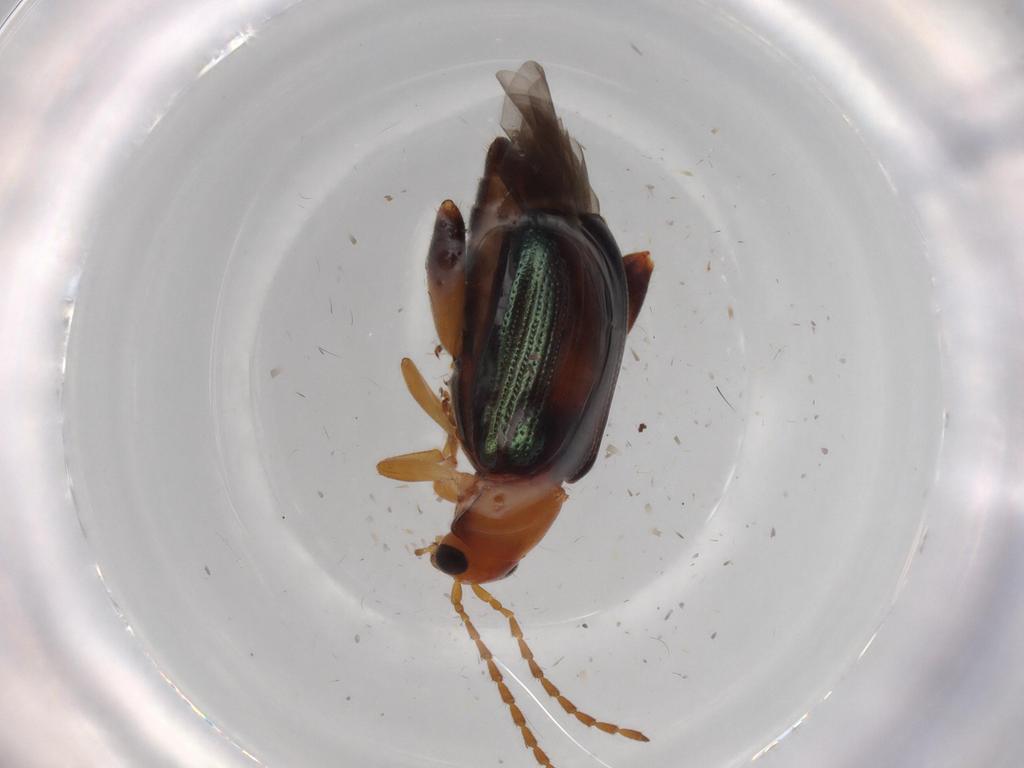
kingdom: Animalia
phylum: Arthropoda
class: Insecta
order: Coleoptera
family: Chrysomelidae
